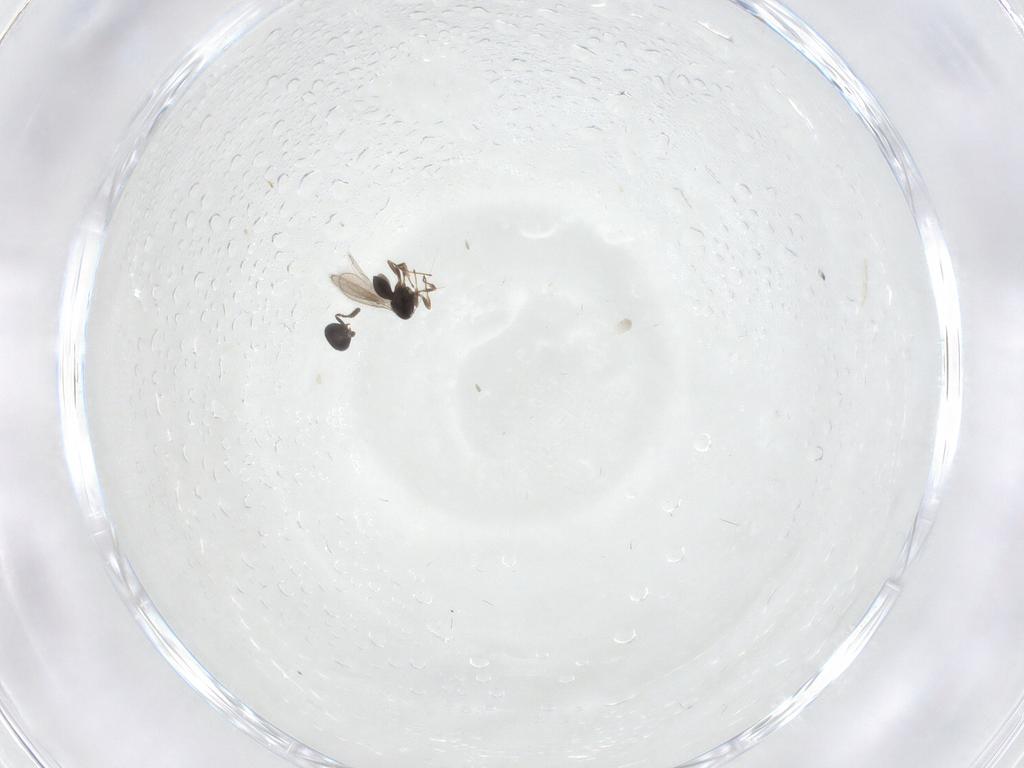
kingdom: Animalia
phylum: Arthropoda
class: Insecta
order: Hymenoptera
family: Scelionidae
